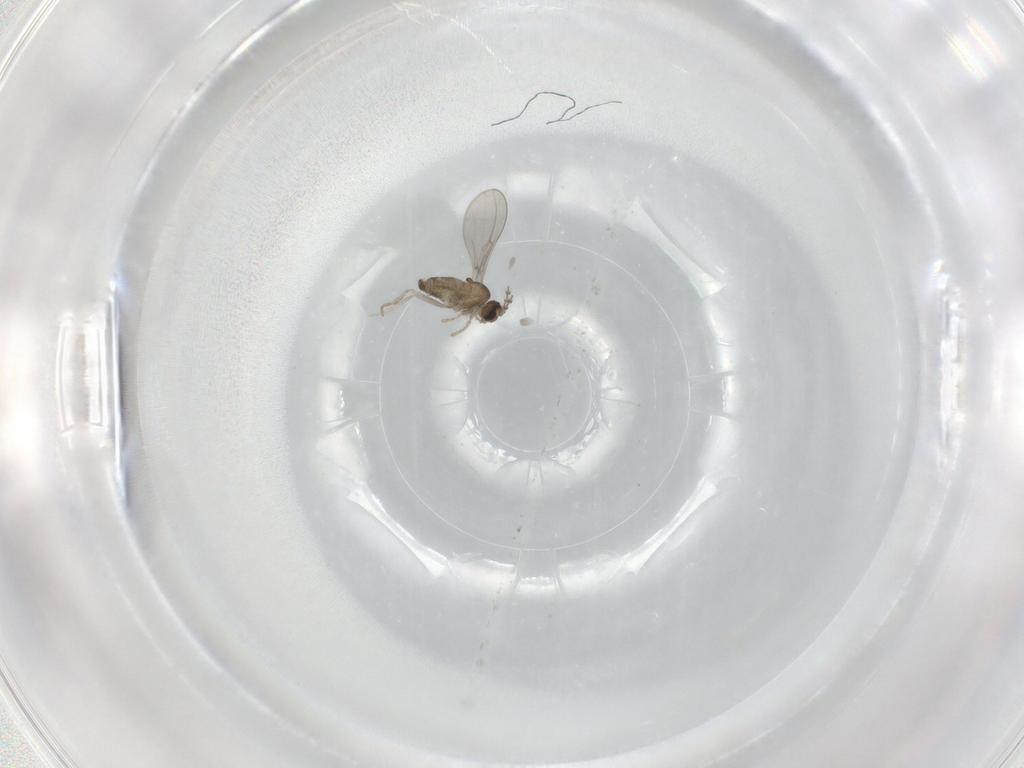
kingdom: Animalia
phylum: Arthropoda
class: Insecta
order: Diptera
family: Cecidomyiidae
